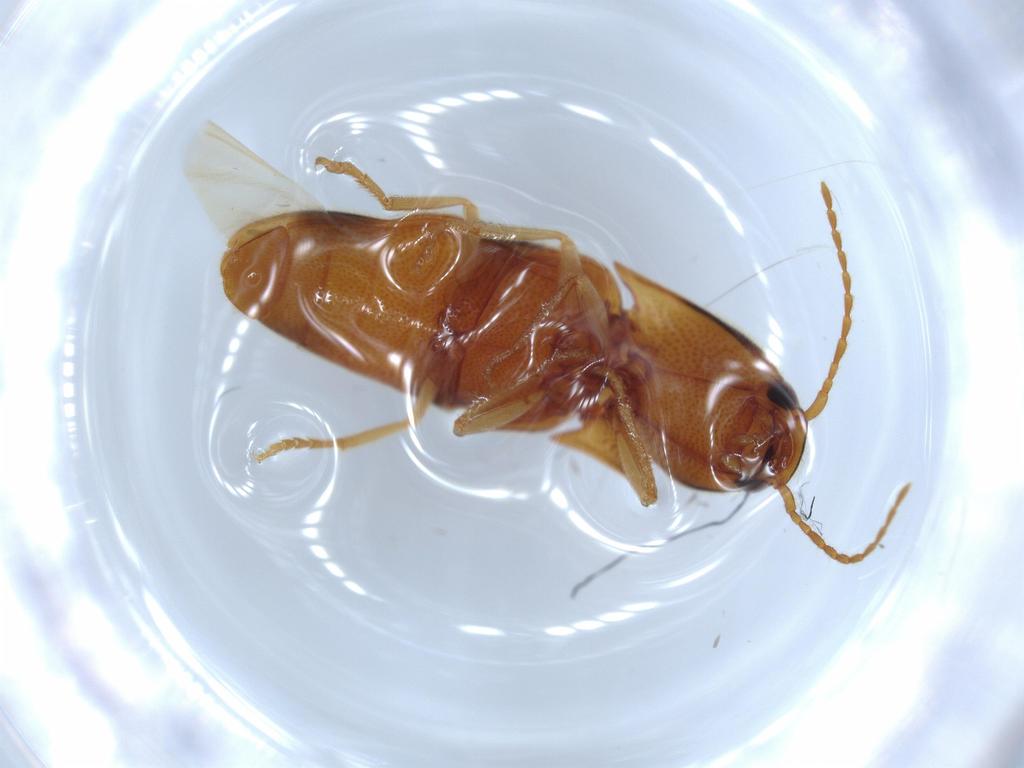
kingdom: Animalia
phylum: Arthropoda
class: Insecta
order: Coleoptera
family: Elateridae
